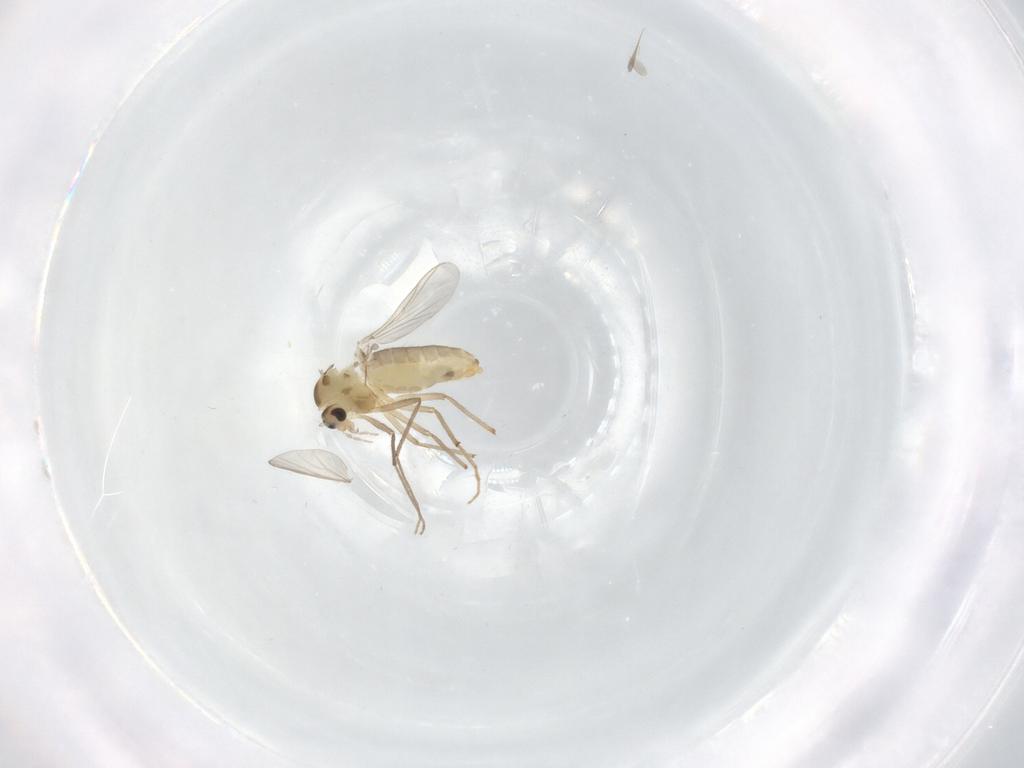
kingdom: Animalia
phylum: Arthropoda
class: Insecta
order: Diptera
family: Chironomidae
